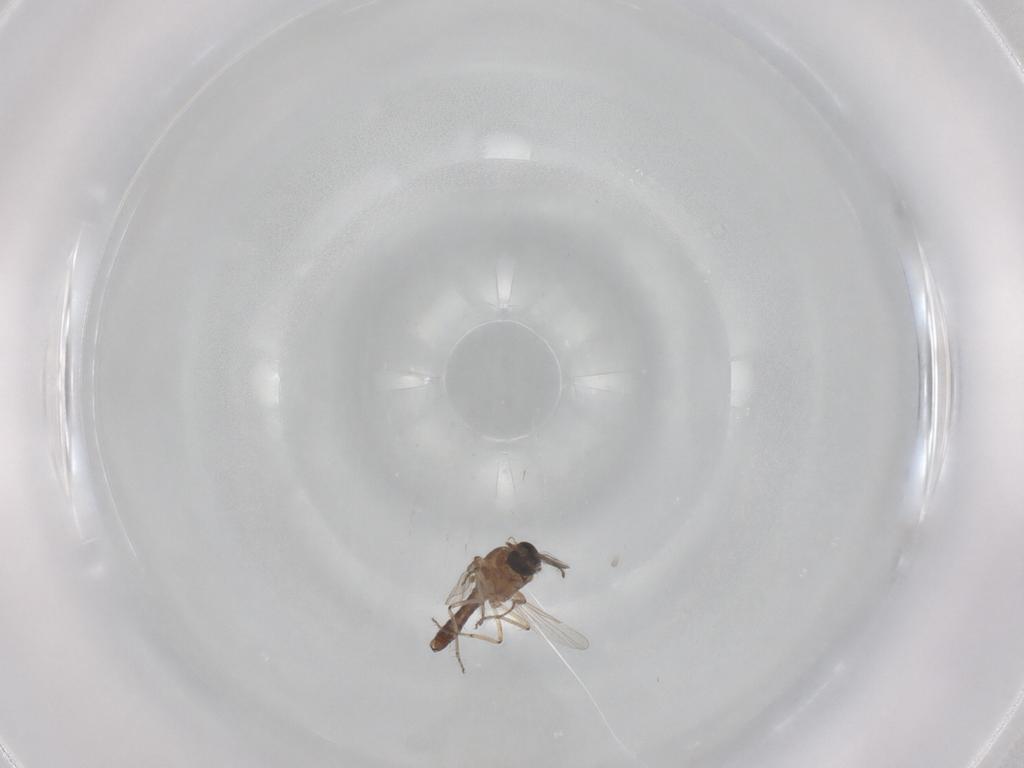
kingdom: Animalia
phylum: Arthropoda
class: Insecta
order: Diptera
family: Ceratopogonidae
